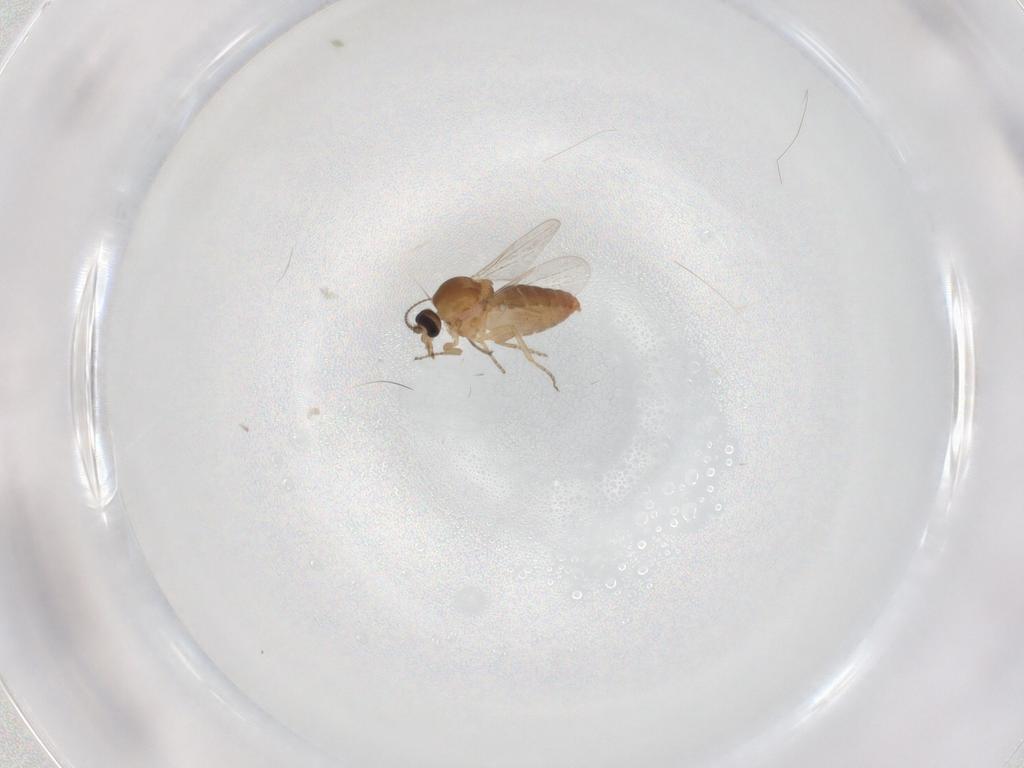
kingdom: Animalia
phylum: Arthropoda
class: Insecta
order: Diptera
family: Ceratopogonidae
